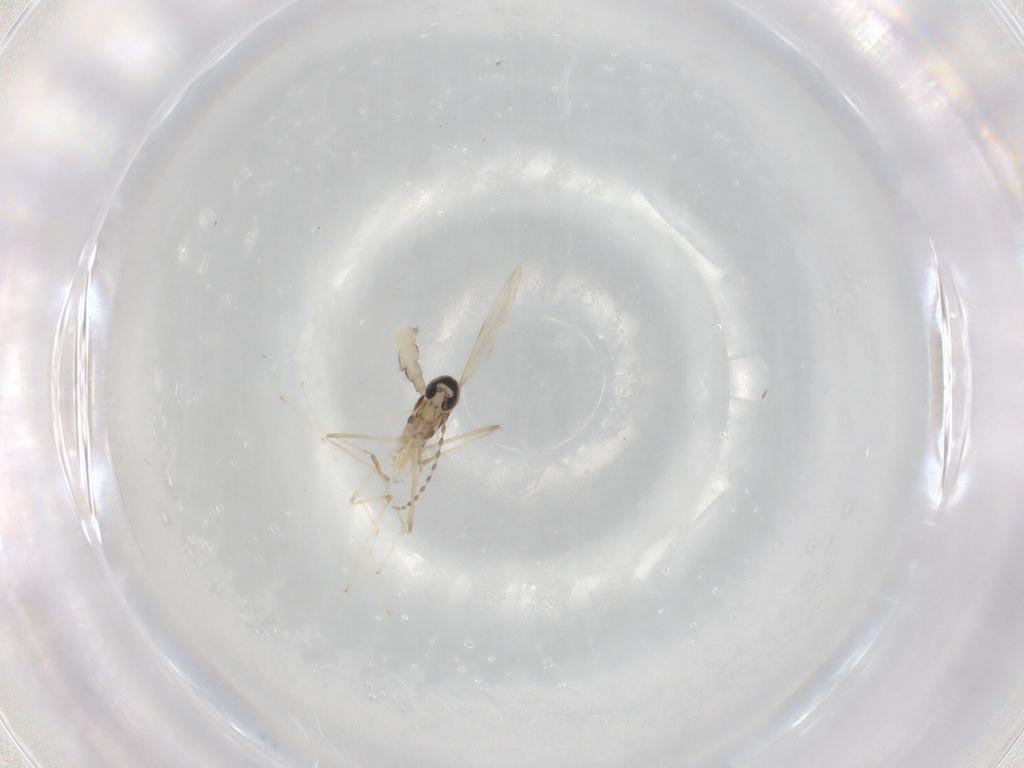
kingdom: Animalia
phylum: Arthropoda
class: Insecta
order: Diptera
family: Cecidomyiidae
